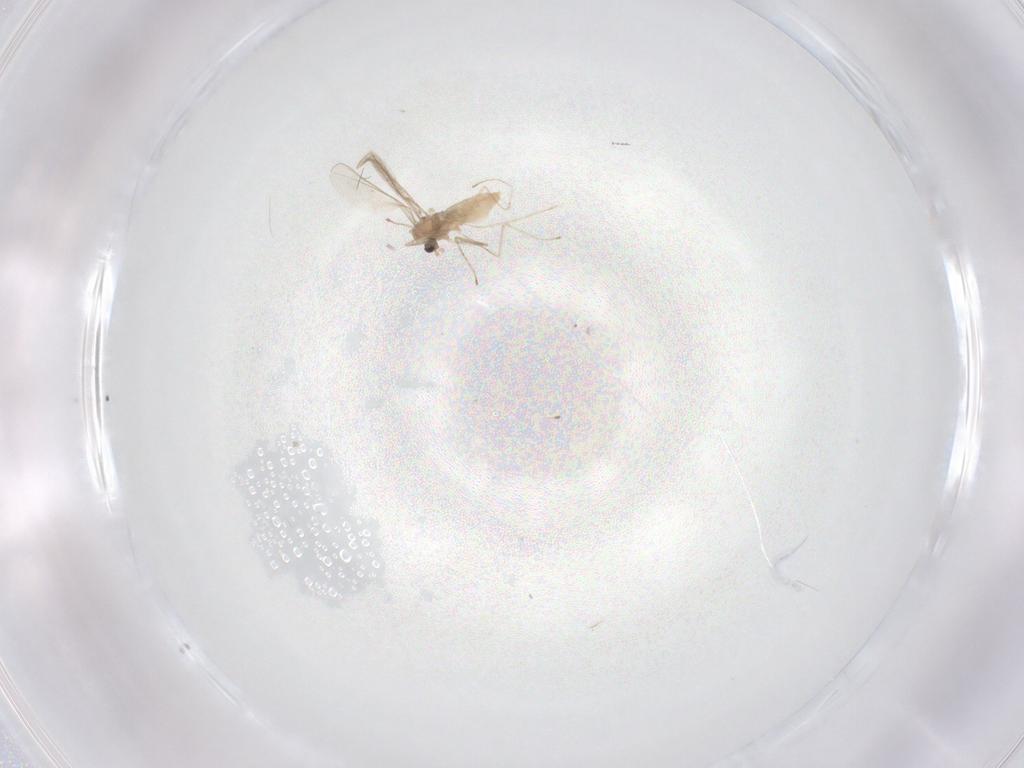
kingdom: Animalia
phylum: Arthropoda
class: Insecta
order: Diptera
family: Cecidomyiidae
